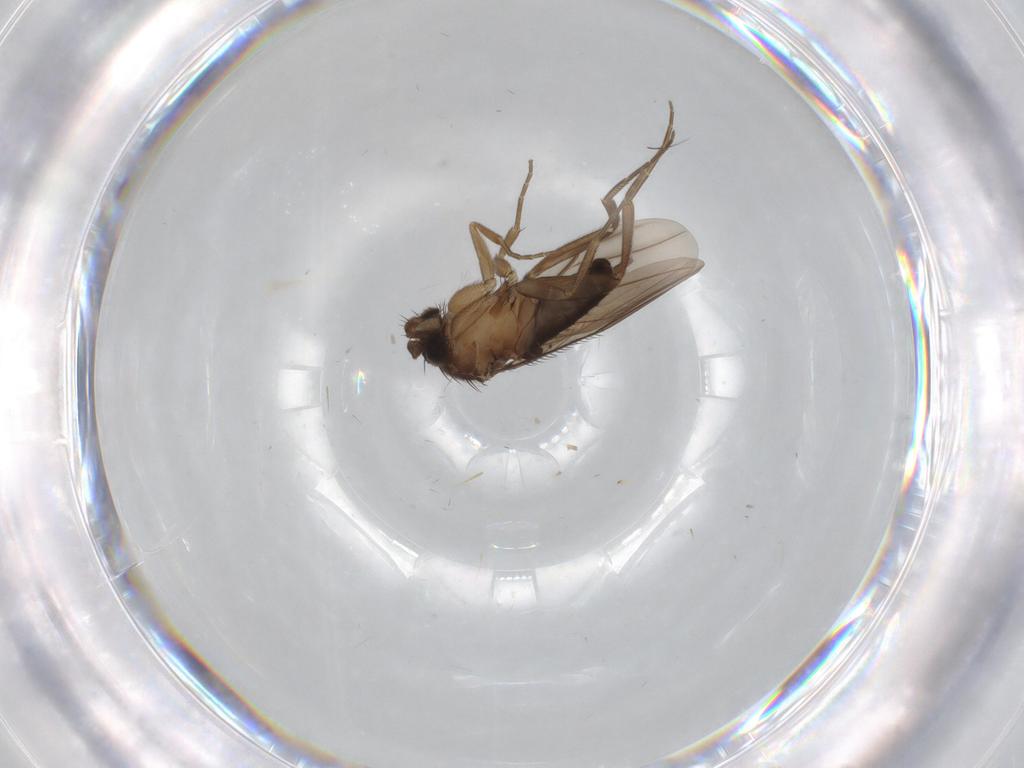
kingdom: Animalia
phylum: Arthropoda
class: Insecta
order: Diptera
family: Phoridae
